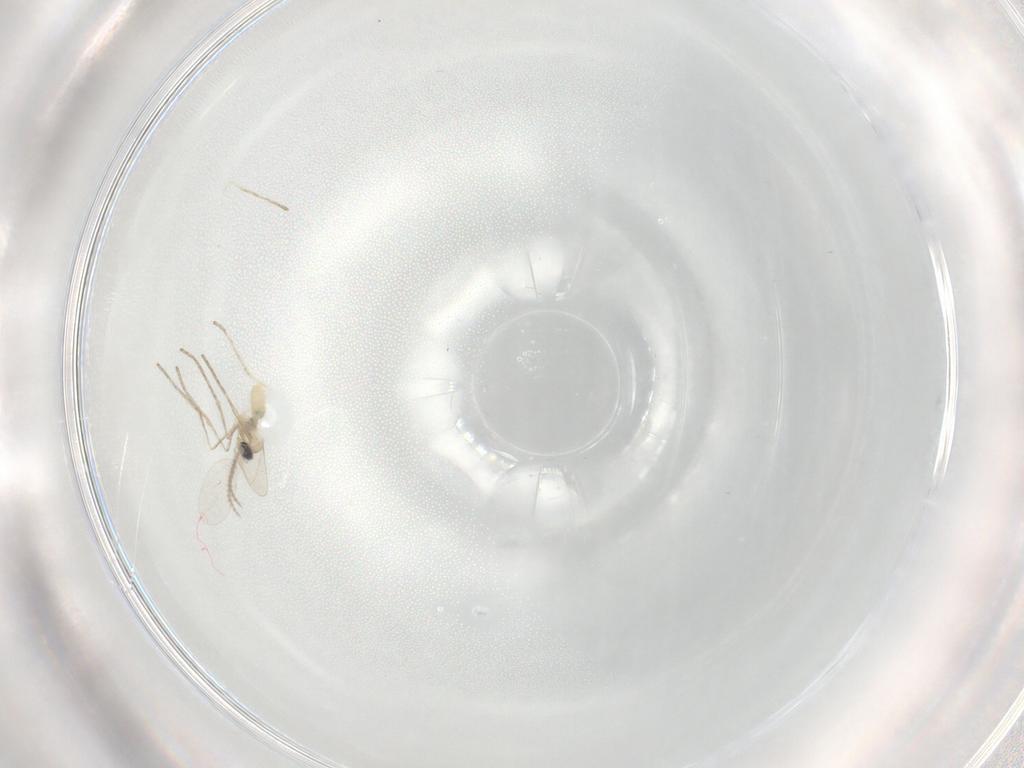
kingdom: Animalia
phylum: Arthropoda
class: Insecta
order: Diptera
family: Cecidomyiidae
